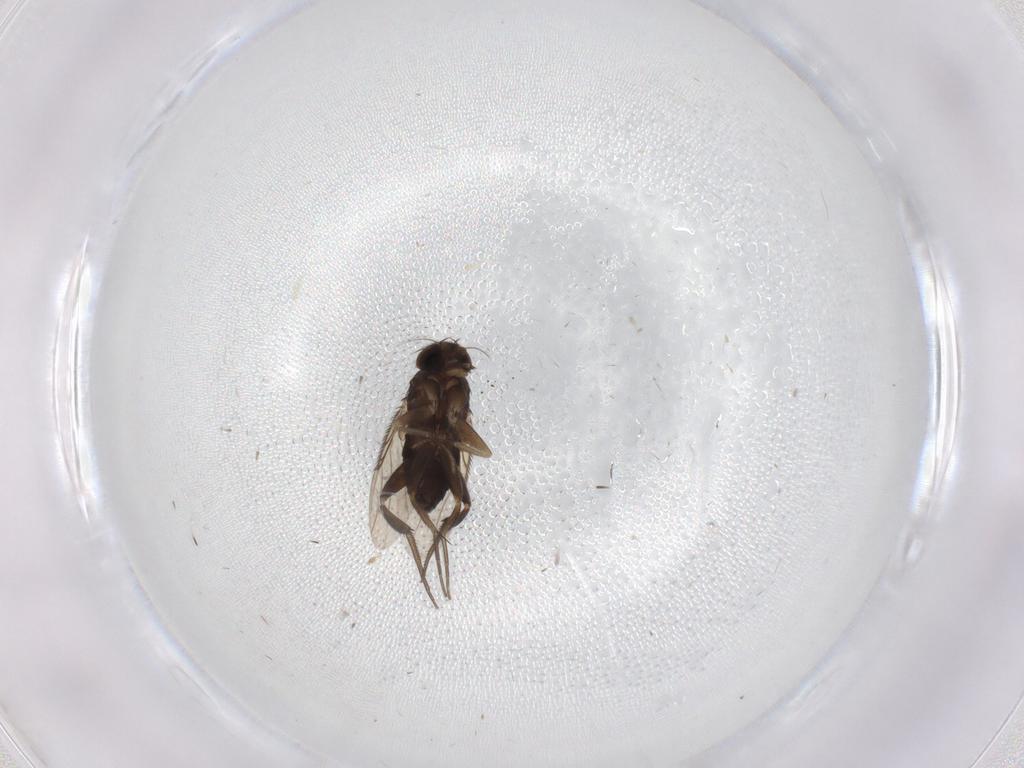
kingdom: Animalia
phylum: Arthropoda
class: Insecta
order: Diptera
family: Phoridae
